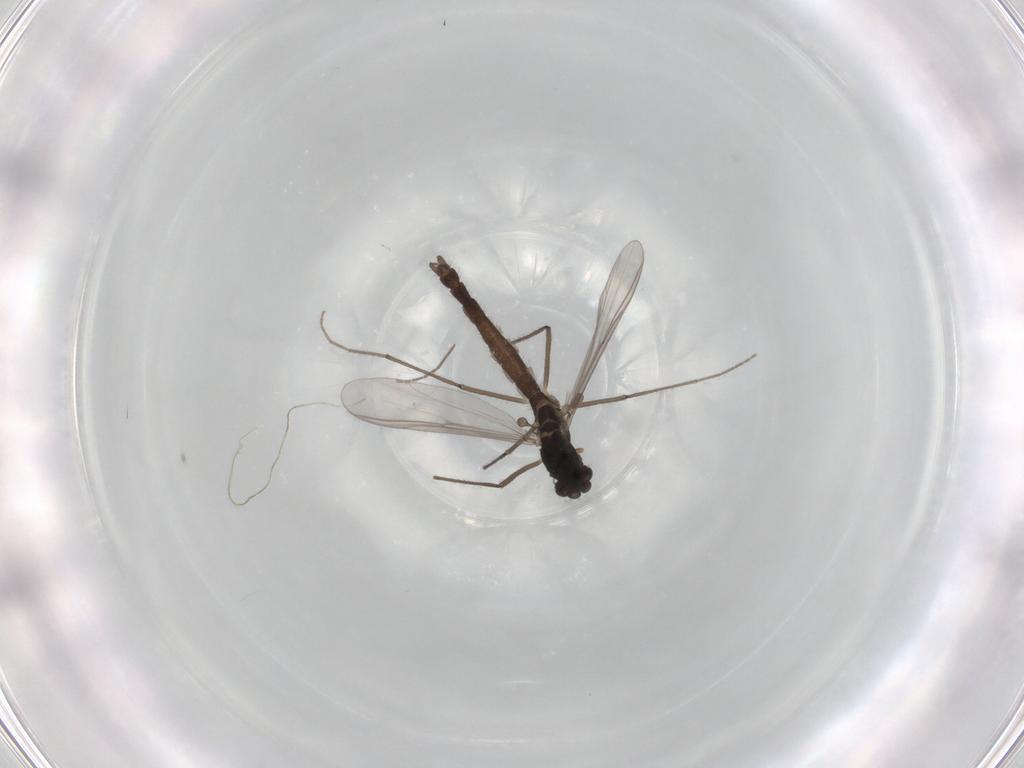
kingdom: Animalia
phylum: Arthropoda
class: Insecta
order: Diptera
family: Chironomidae
